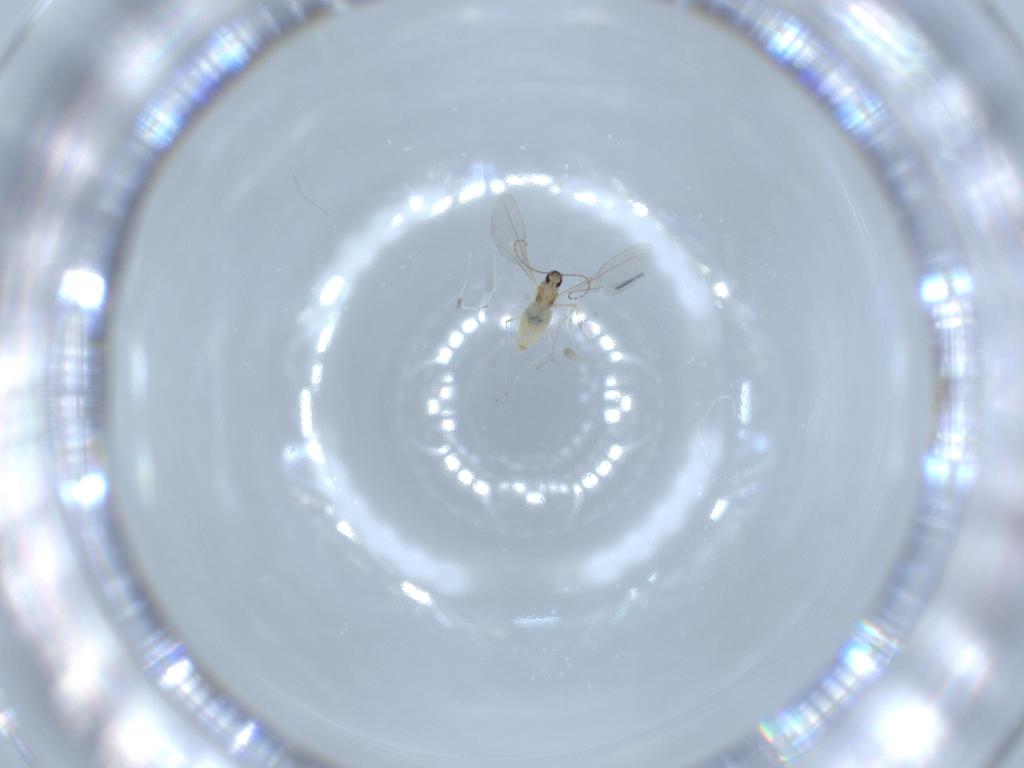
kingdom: Animalia
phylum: Arthropoda
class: Insecta
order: Diptera
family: Cecidomyiidae
